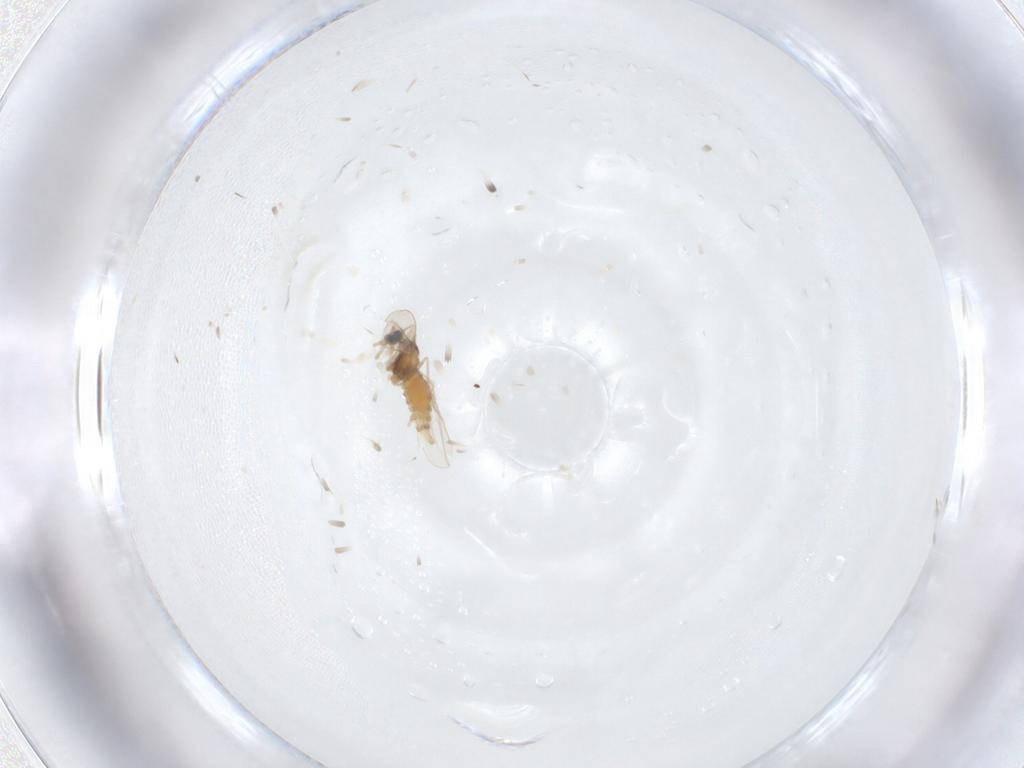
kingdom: Animalia
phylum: Arthropoda
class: Insecta
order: Diptera
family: Cecidomyiidae
